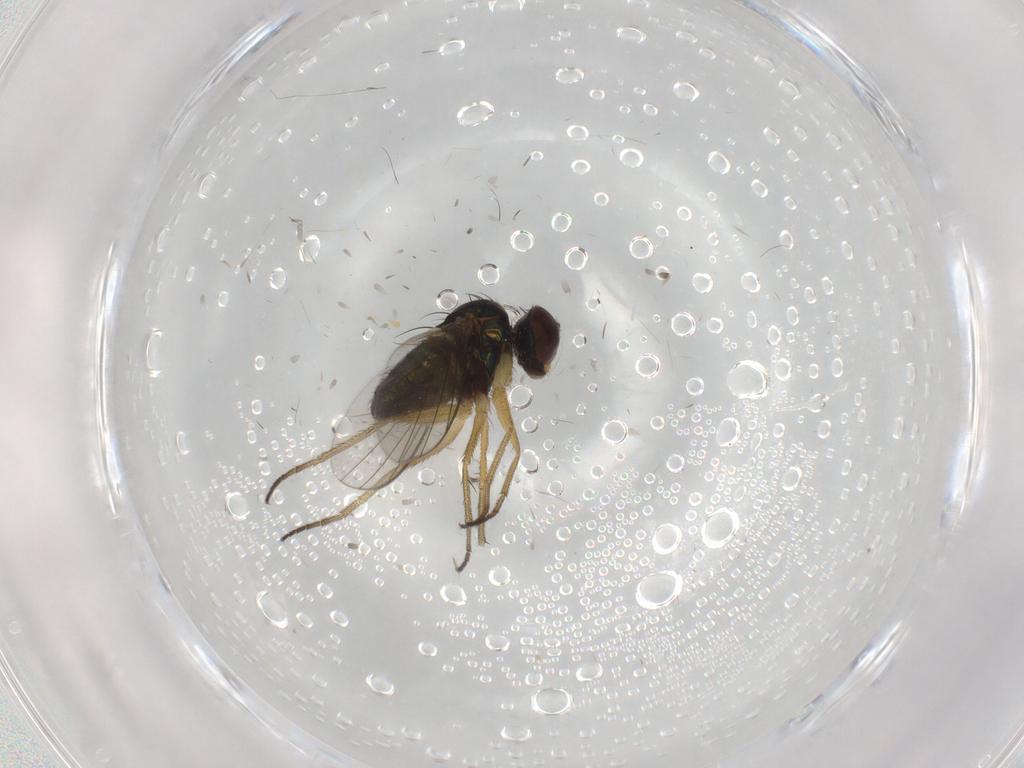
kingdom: Animalia
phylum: Arthropoda
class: Insecta
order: Diptera
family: Dolichopodidae
